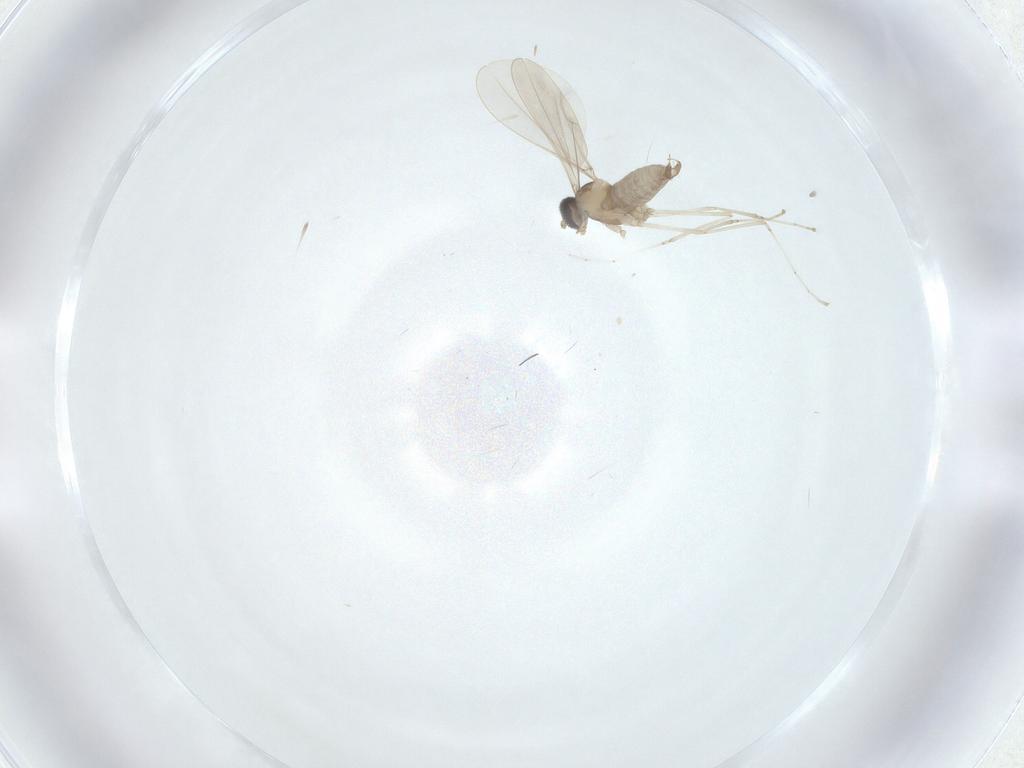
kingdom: Animalia
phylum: Arthropoda
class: Insecta
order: Diptera
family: Cecidomyiidae
